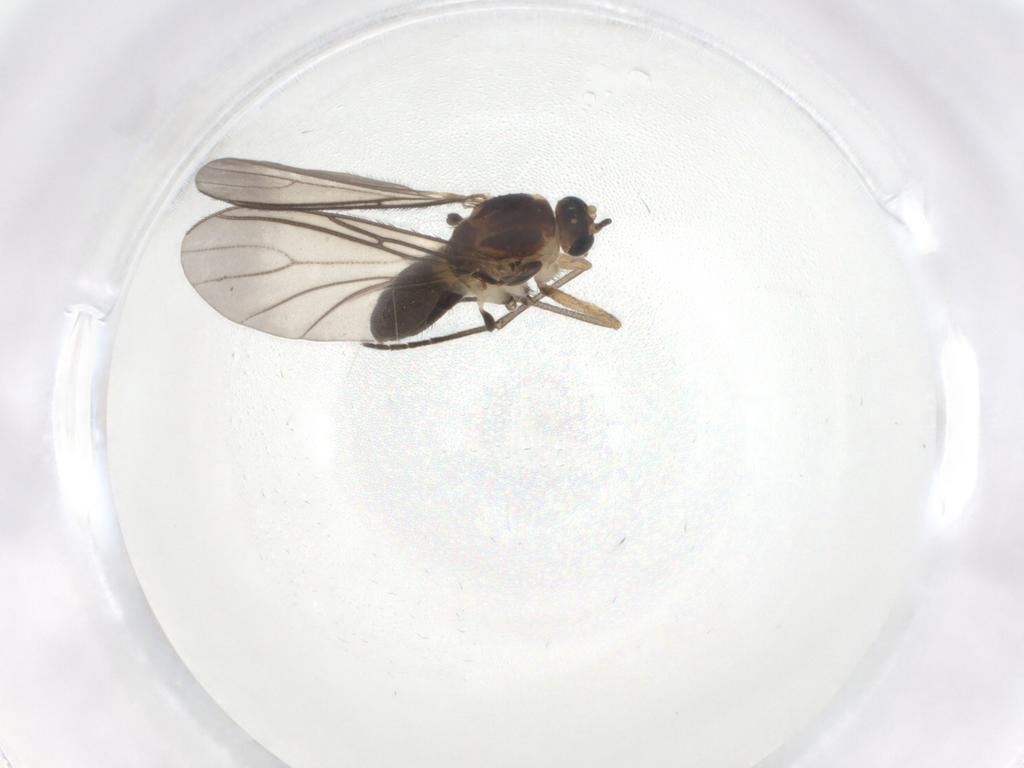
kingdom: Animalia
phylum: Arthropoda
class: Insecta
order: Diptera
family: Sciaridae
